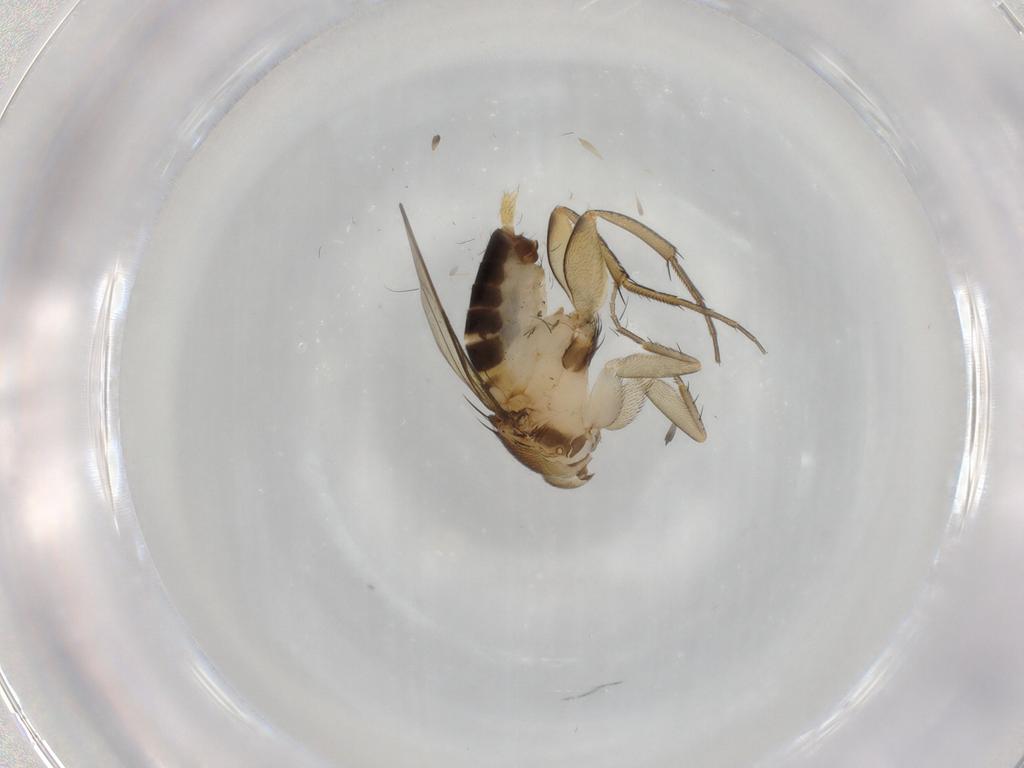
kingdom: Animalia
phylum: Arthropoda
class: Insecta
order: Diptera
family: Phoridae
